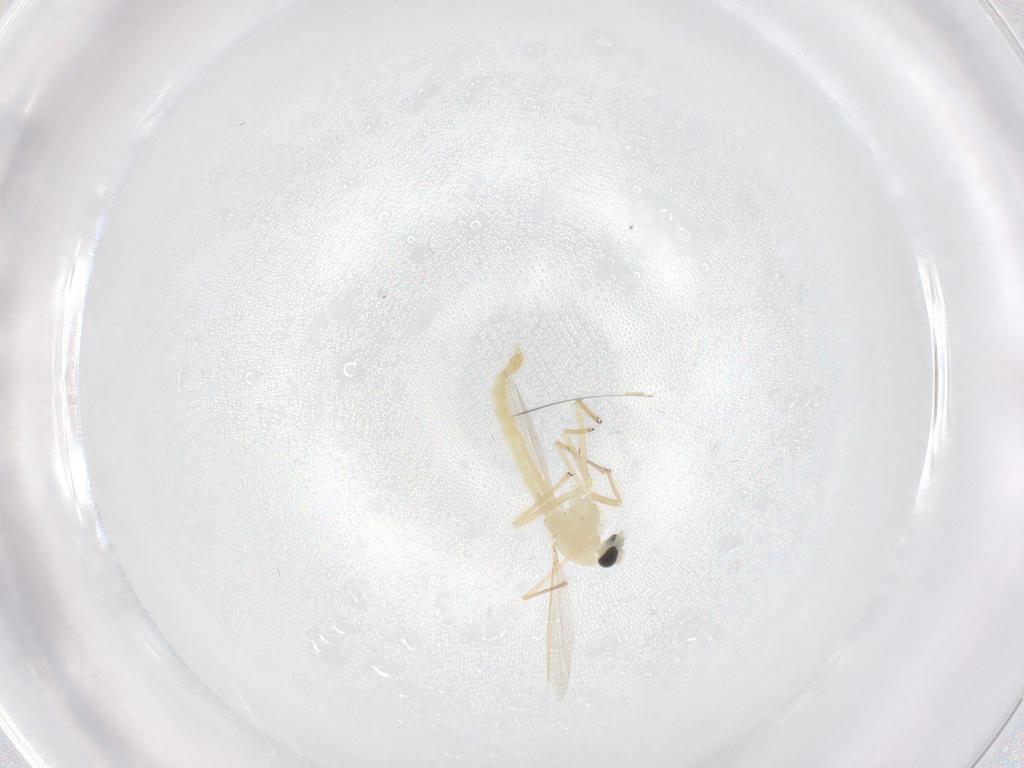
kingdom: Animalia
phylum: Arthropoda
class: Insecta
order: Diptera
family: Chironomidae
